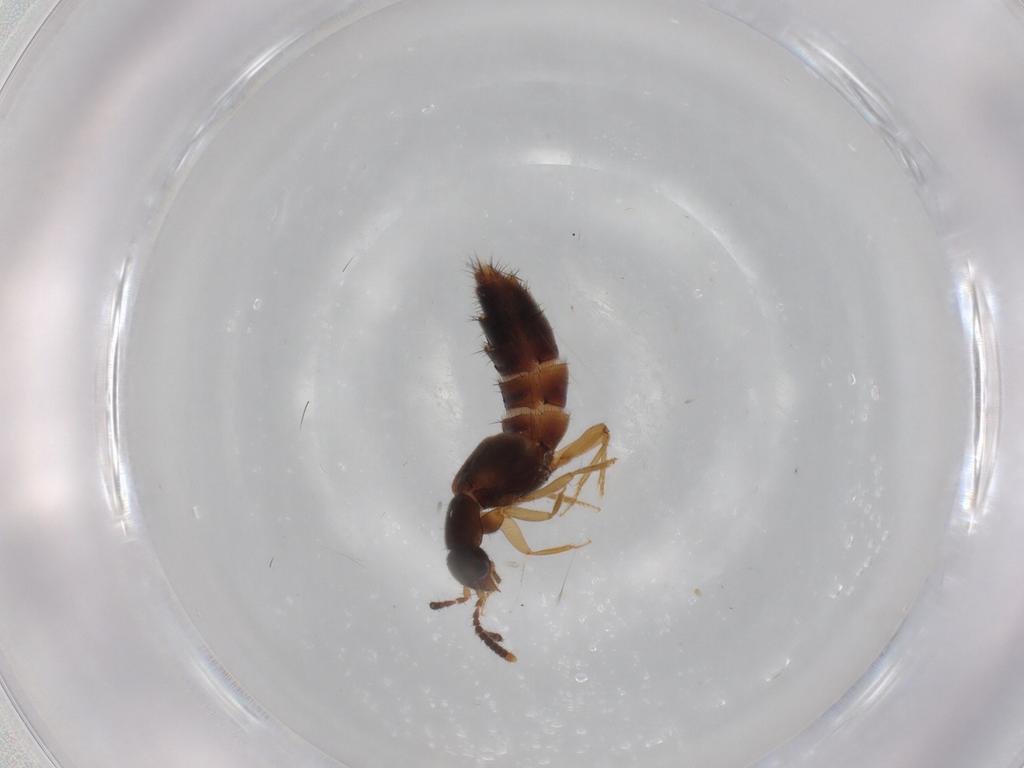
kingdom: Animalia
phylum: Arthropoda
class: Insecta
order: Coleoptera
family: Staphylinidae
